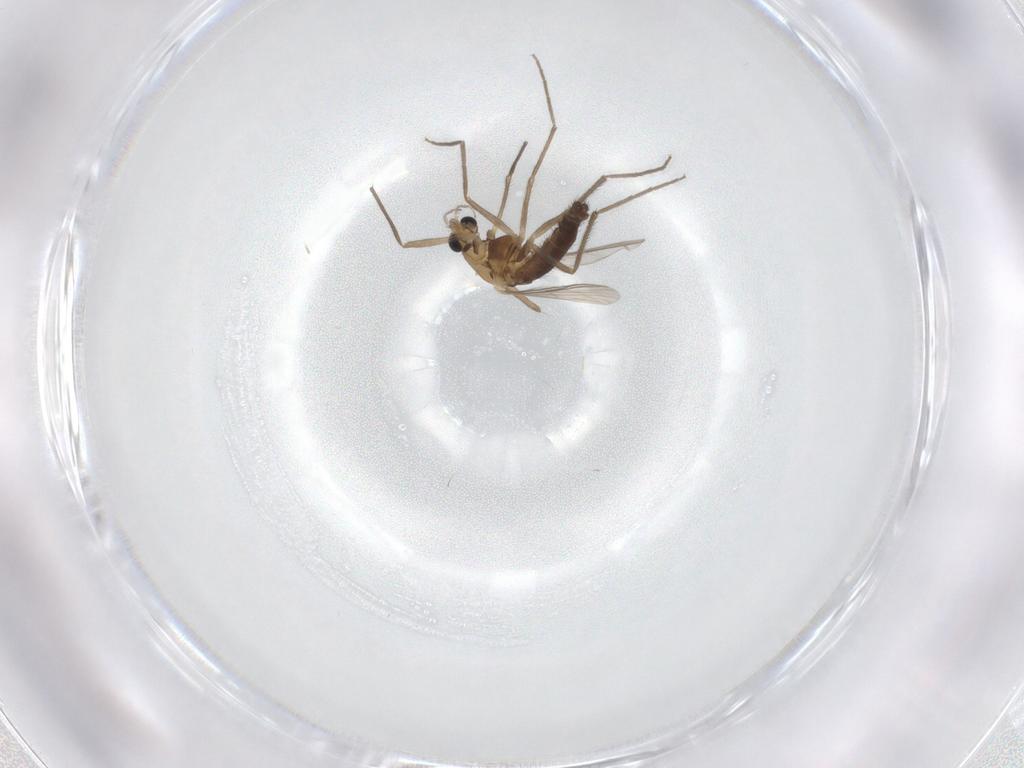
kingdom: Animalia
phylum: Arthropoda
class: Insecta
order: Diptera
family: Chironomidae
